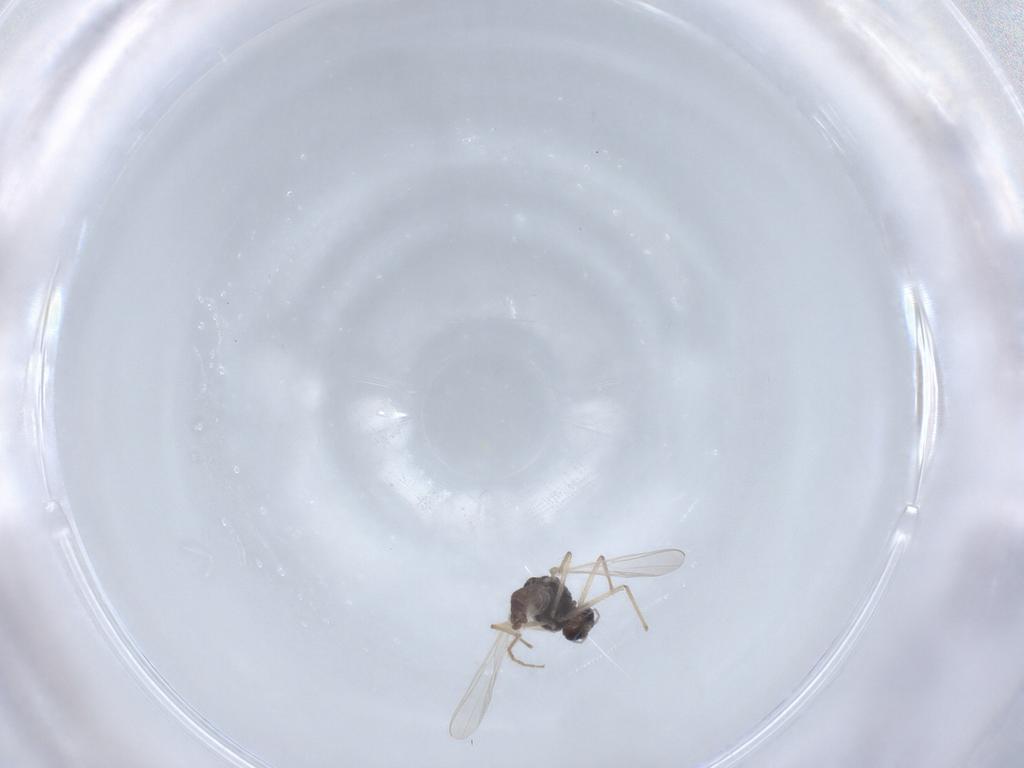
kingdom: Animalia
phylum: Arthropoda
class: Insecta
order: Diptera
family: Chironomidae
